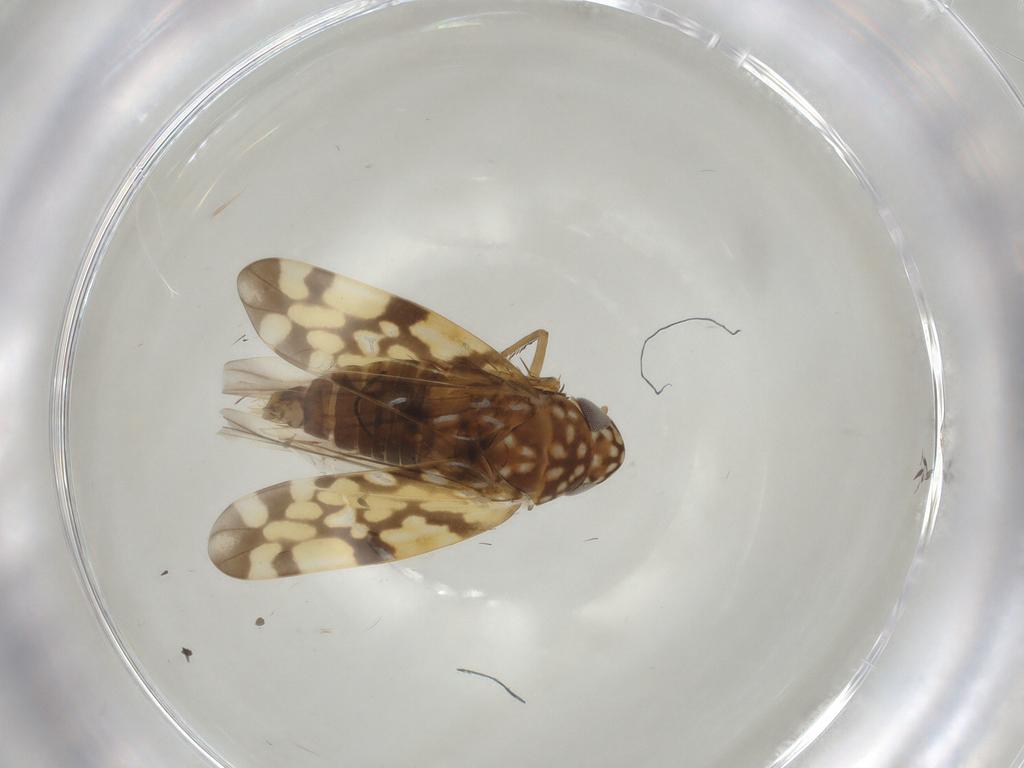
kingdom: Animalia
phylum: Arthropoda
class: Insecta
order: Hemiptera
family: Cicadellidae
